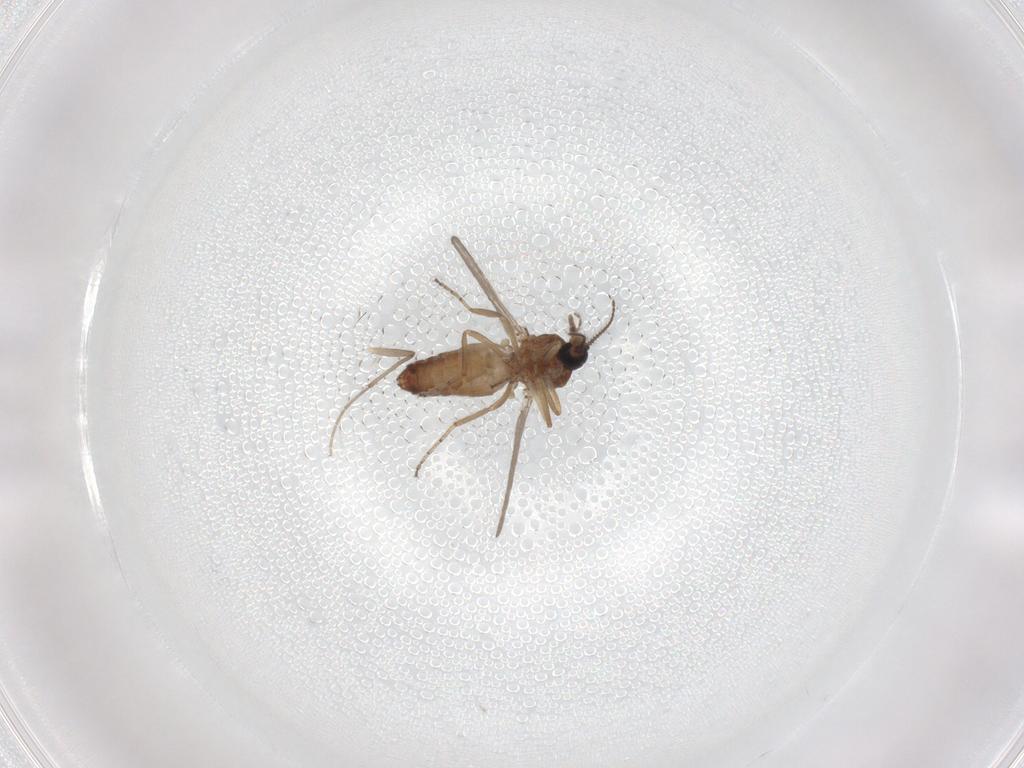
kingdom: Animalia
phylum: Arthropoda
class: Insecta
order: Diptera
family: Ceratopogonidae
